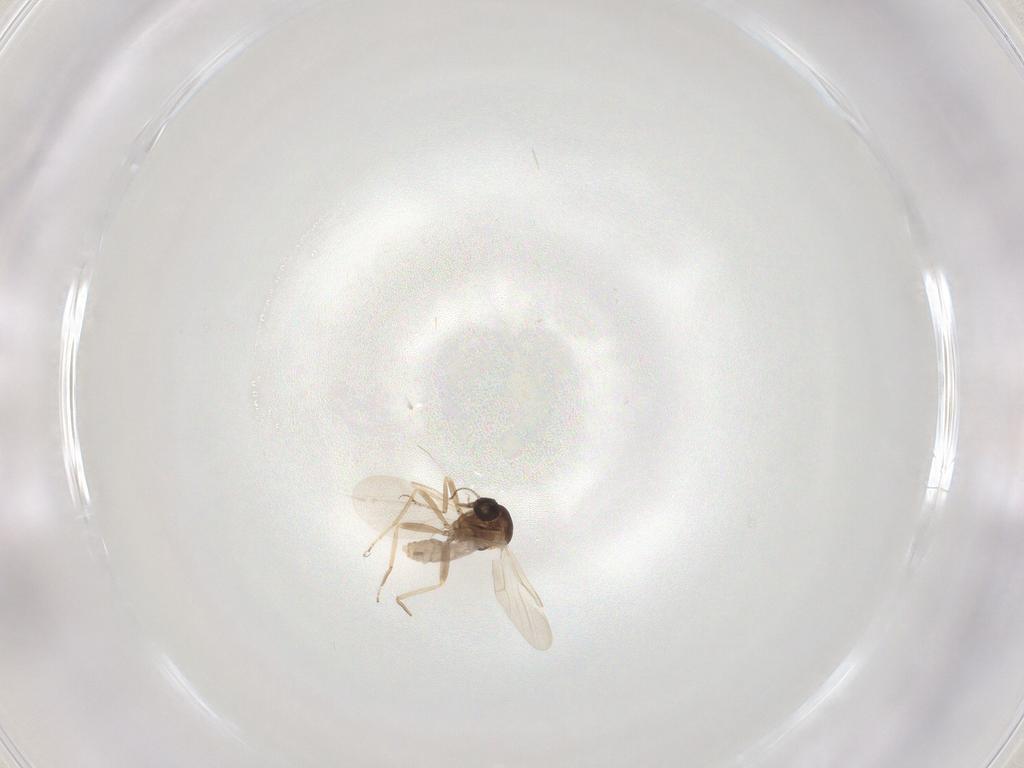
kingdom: Animalia
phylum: Arthropoda
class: Insecta
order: Diptera
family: Ceratopogonidae
